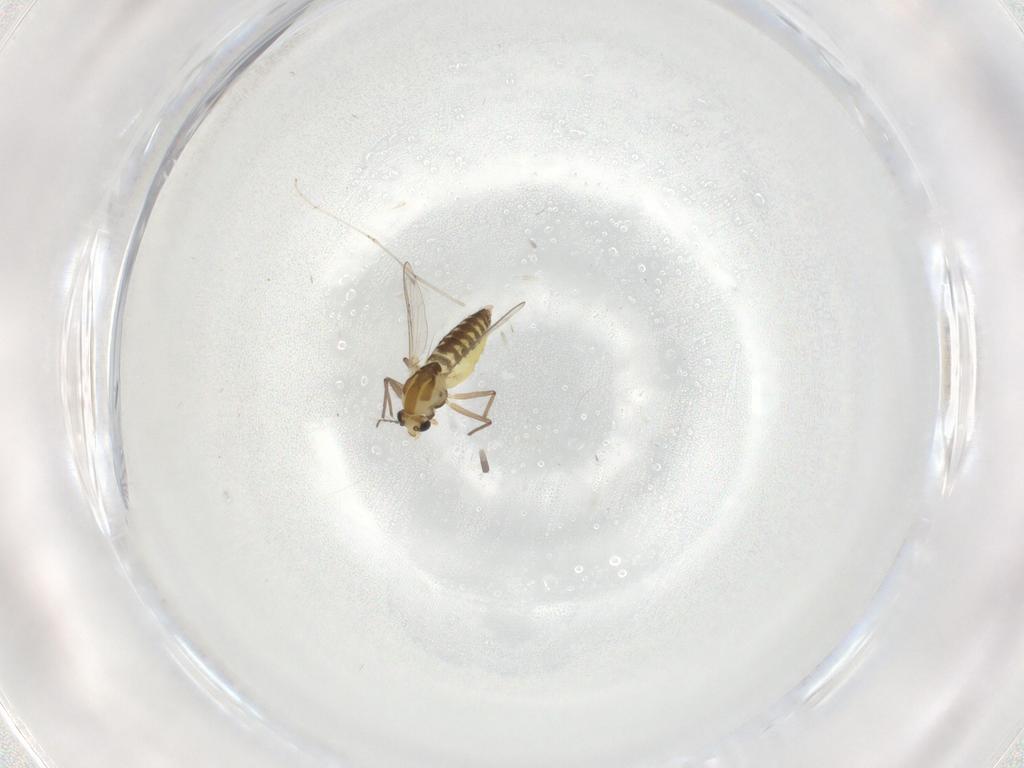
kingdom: Animalia
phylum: Arthropoda
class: Insecta
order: Diptera
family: Chironomidae
